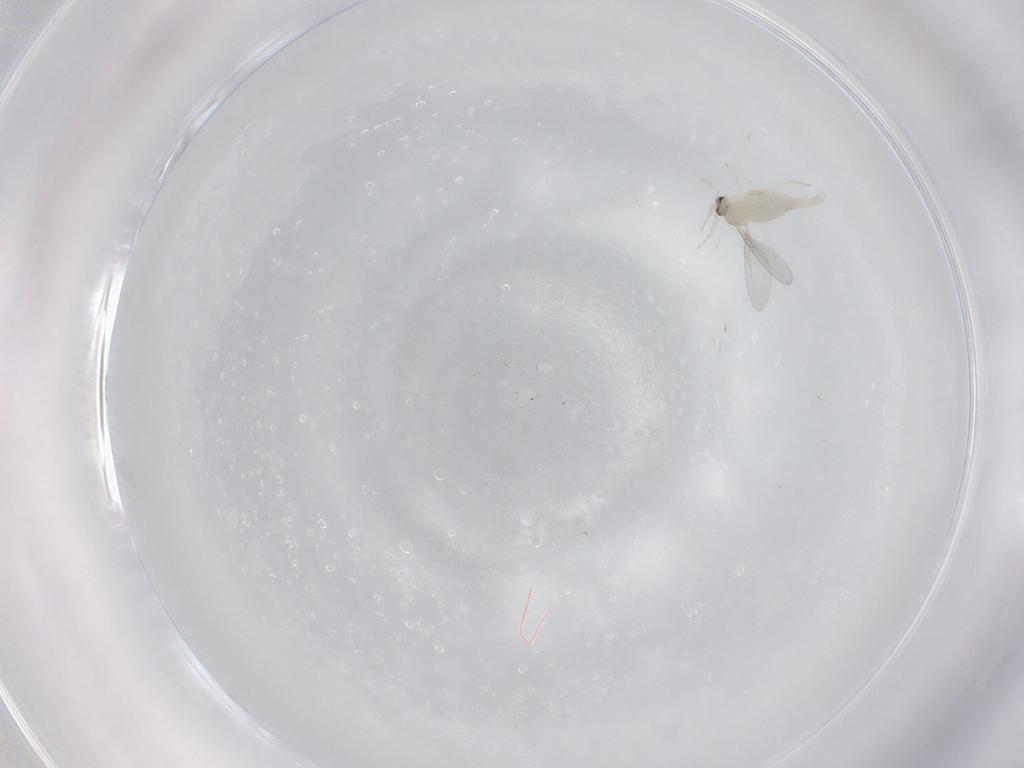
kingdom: Animalia
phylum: Arthropoda
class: Insecta
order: Diptera
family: Cecidomyiidae
